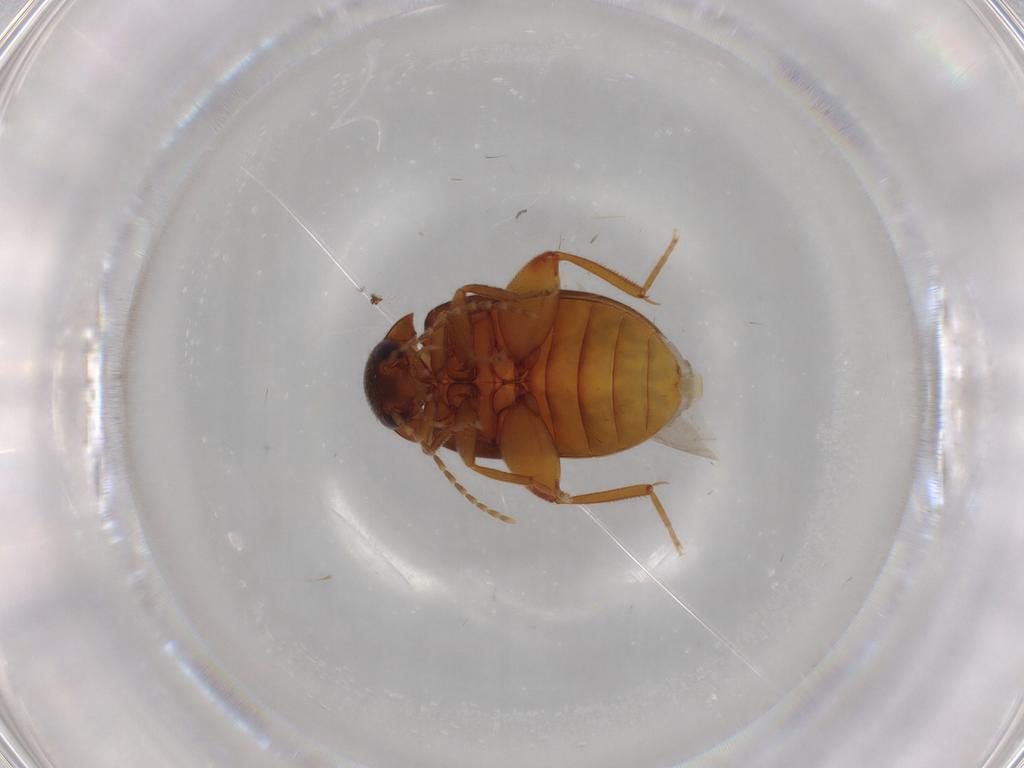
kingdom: Animalia
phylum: Arthropoda
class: Insecta
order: Coleoptera
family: Scirtidae
